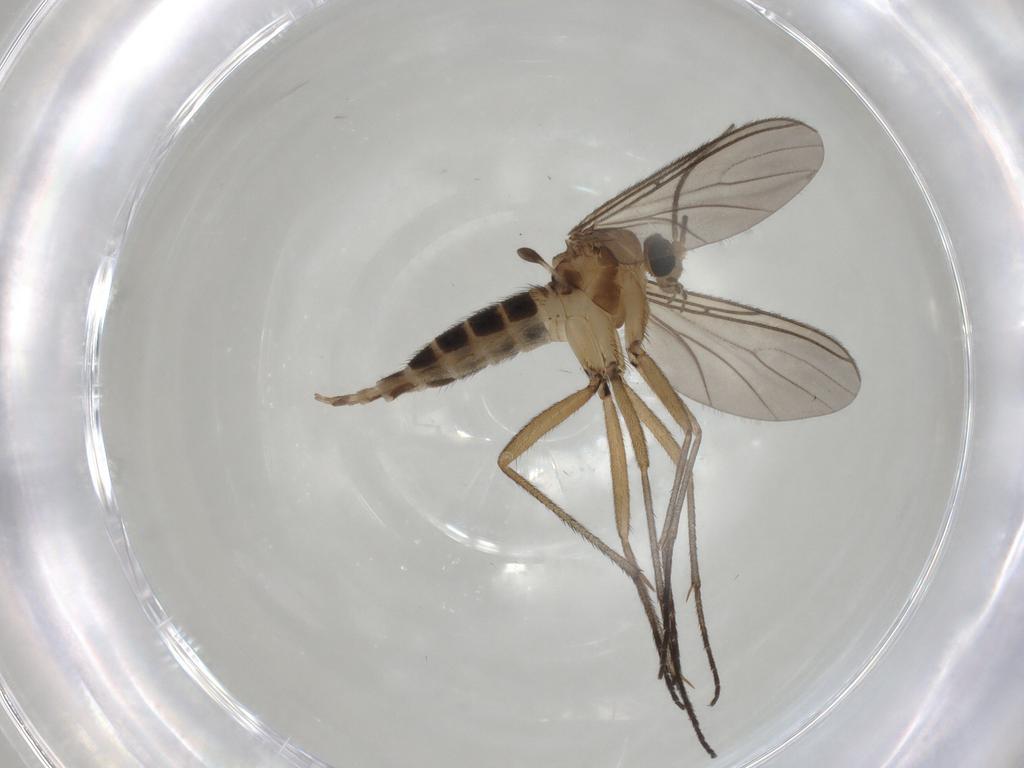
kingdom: Animalia
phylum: Arthropoda
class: Insecta
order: Diptera
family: Sciaridae
